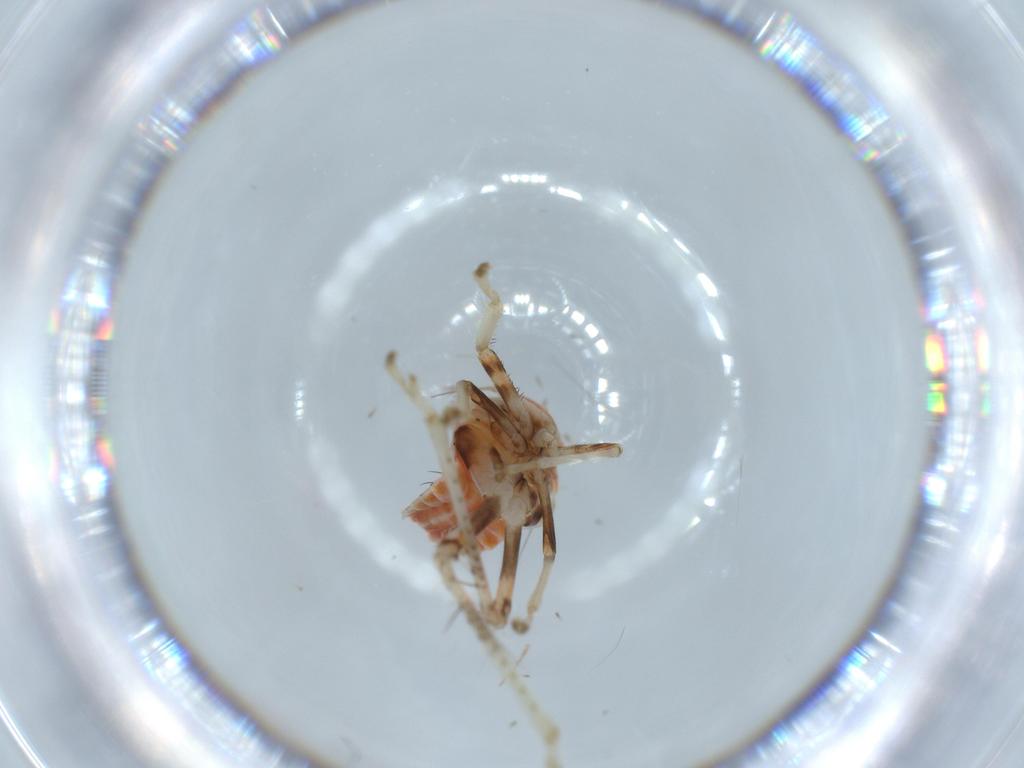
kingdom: Animalia
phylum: Arthropoda
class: Insecta
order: Hemiptera
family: Cicadellidae
